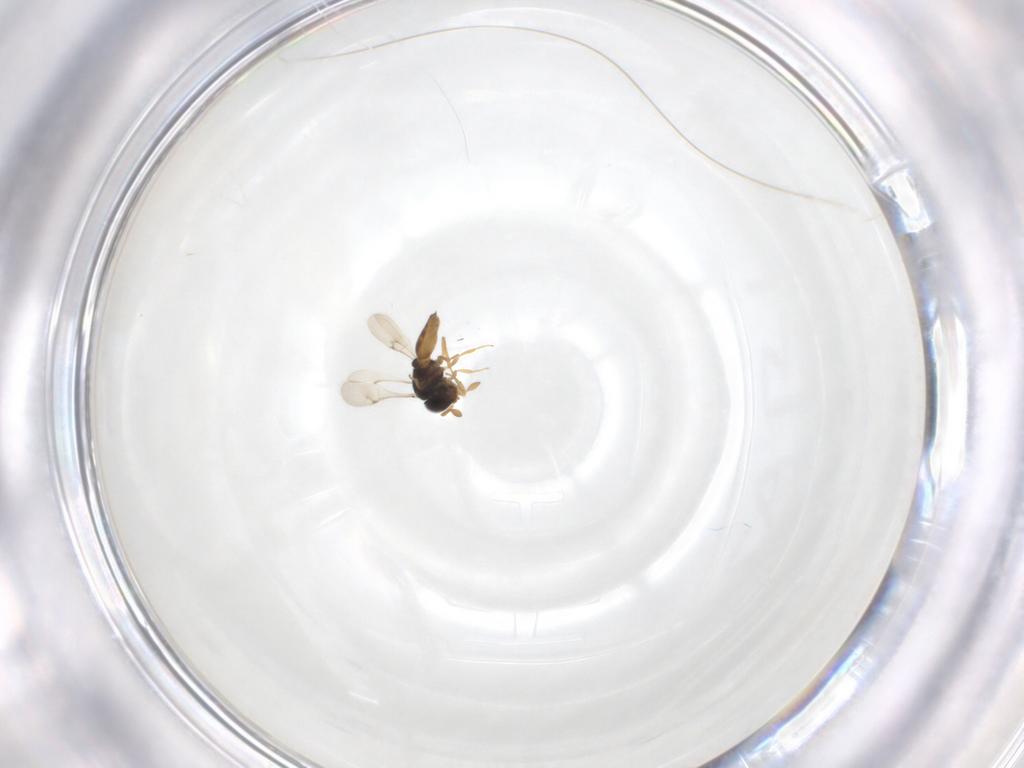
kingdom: Animalia
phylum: Arthropoda
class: Insecta
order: Hymenoptera
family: Scelionidae
